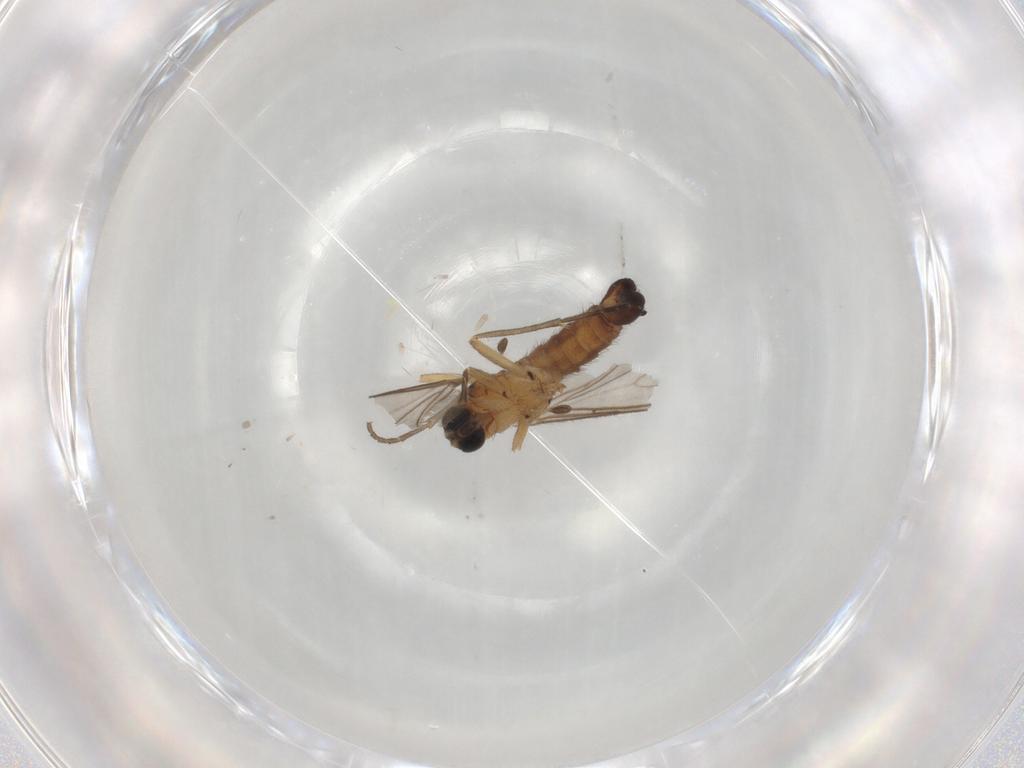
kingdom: Animalia
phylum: Arthropoda
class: Insecta
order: Diptera
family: Sciaridae
